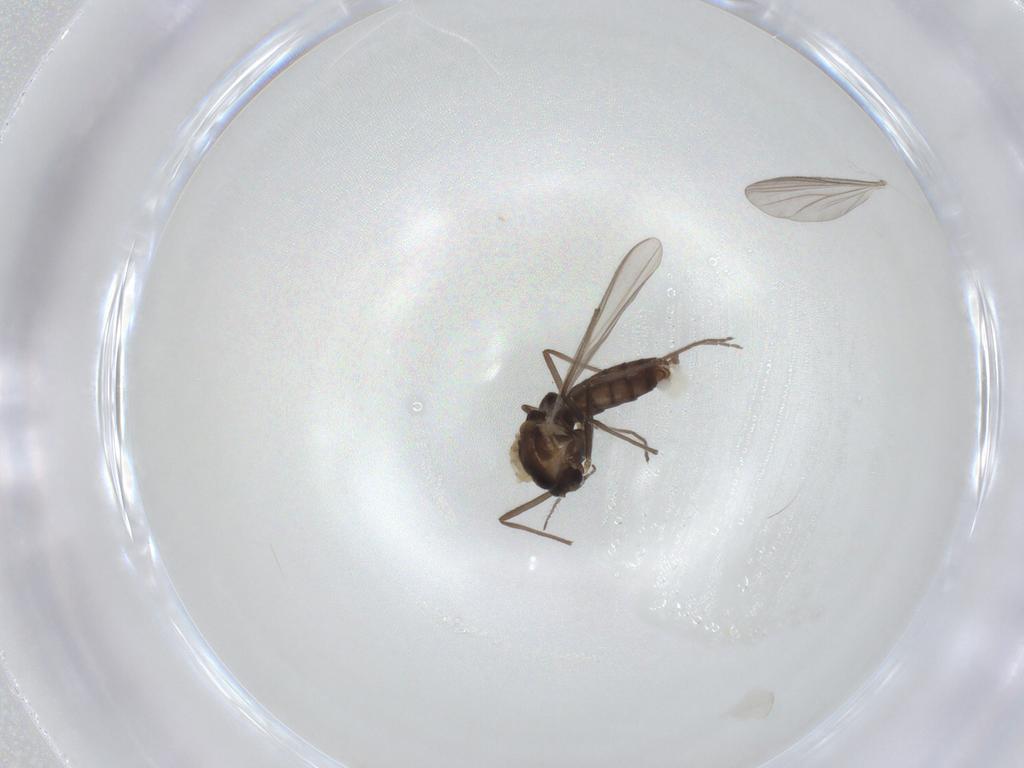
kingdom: Animalia
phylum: Arthropoda
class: Insecta
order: Diptera
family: Chironomidae
